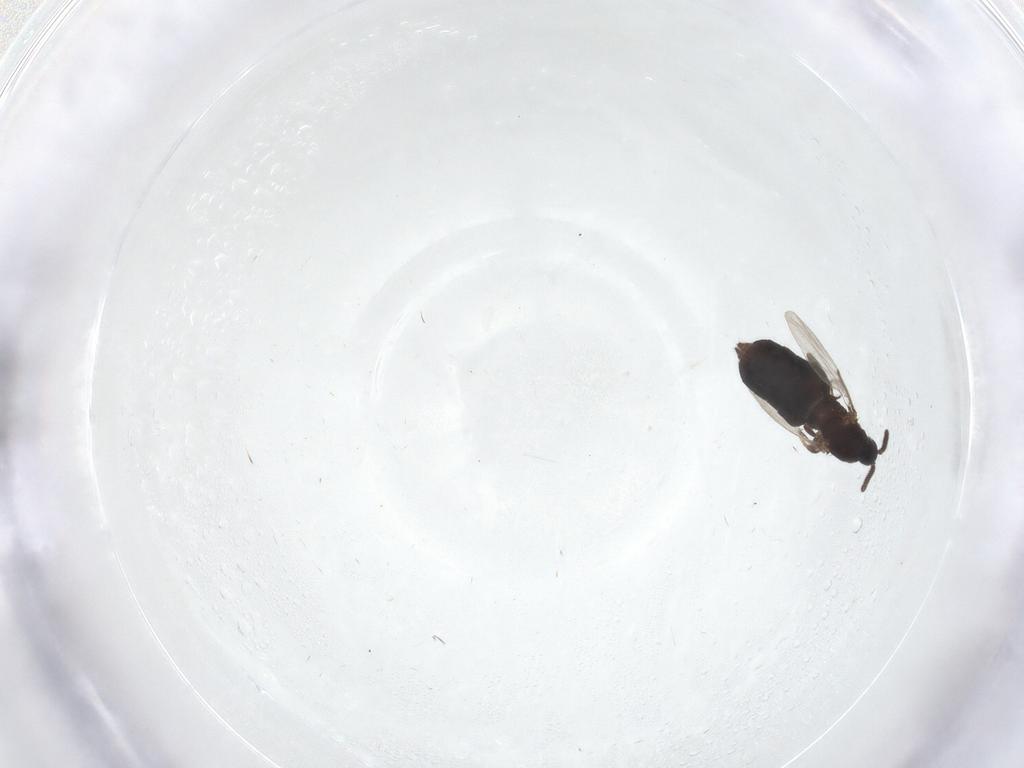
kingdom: Animalia
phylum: Arthropoda
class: Insecta
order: Diptera
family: Scatopsidae
